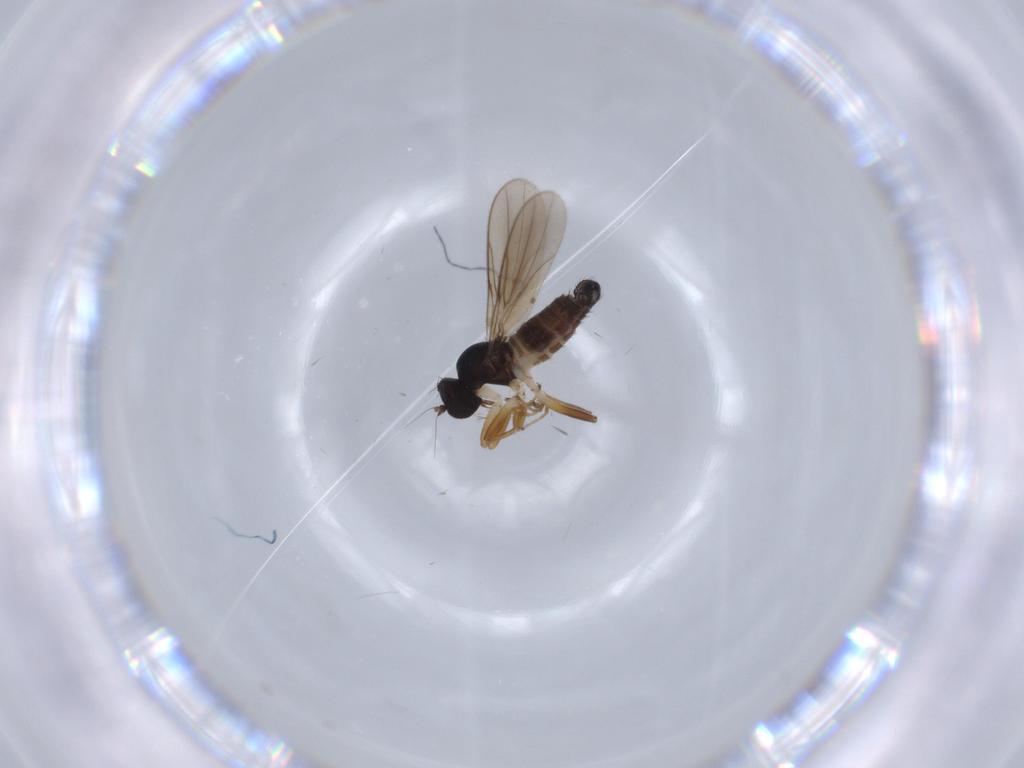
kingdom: Animalia
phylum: Arthropoda
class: Insecta
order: Diptera
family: Hybotidae
